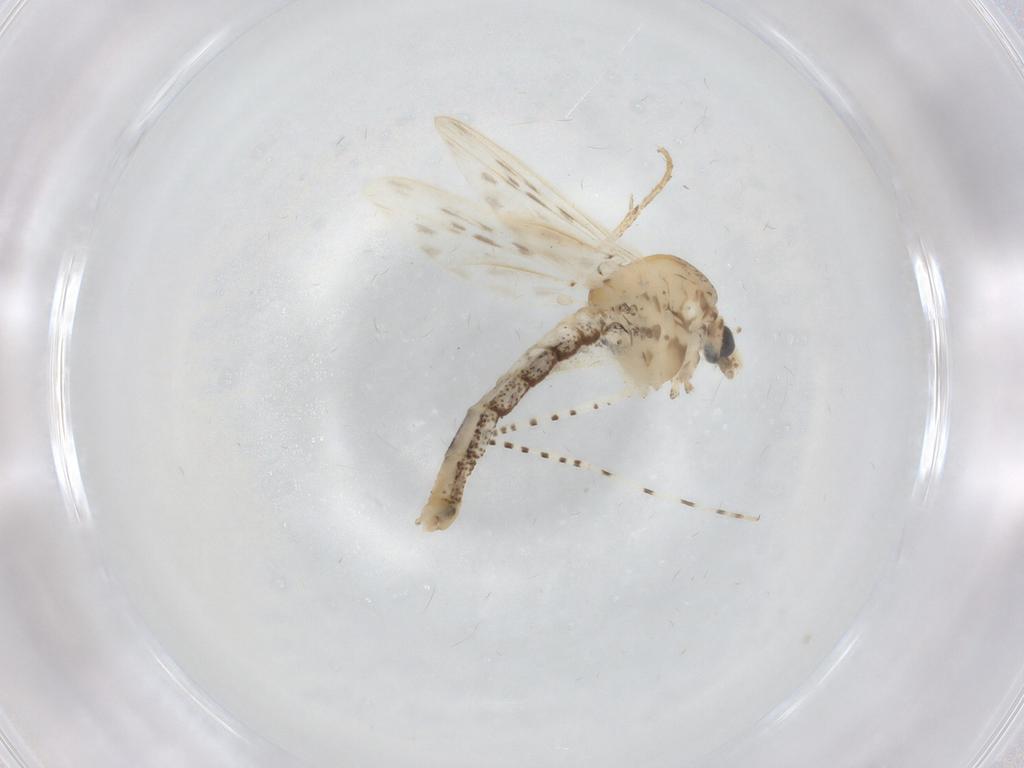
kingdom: Animalia
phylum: Arthropoda
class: Insecta
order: Diptera
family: Chaoboridae
